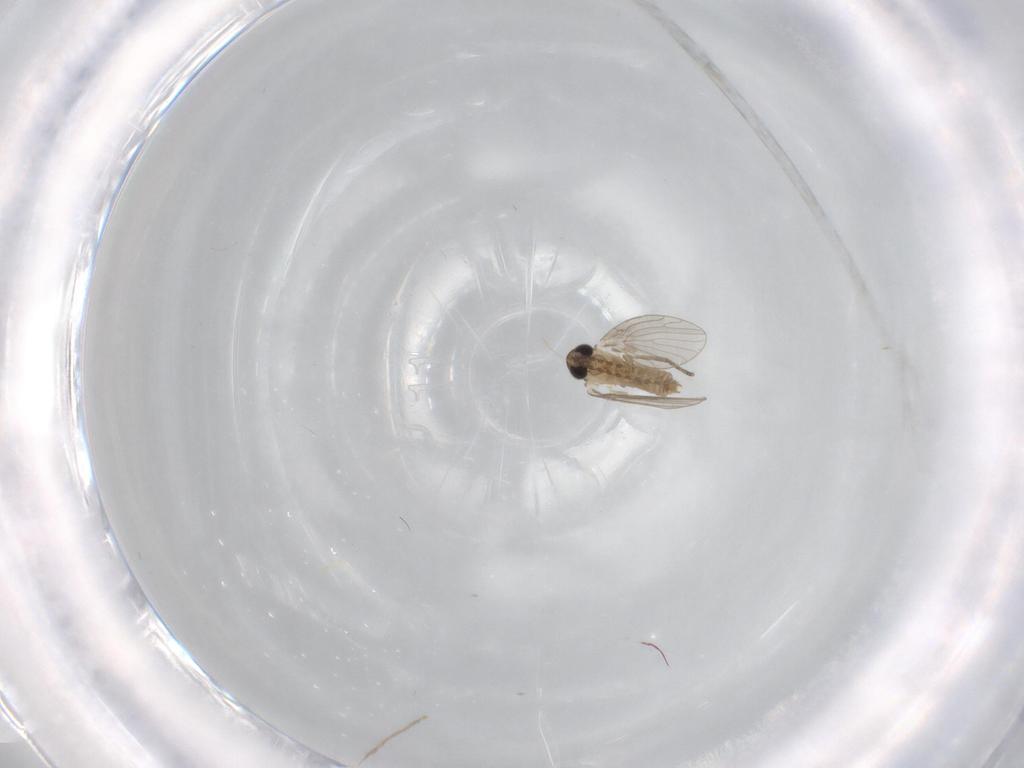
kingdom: Animalia
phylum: Arthropoda
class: Insecta
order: Diptera
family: Psychodidae
